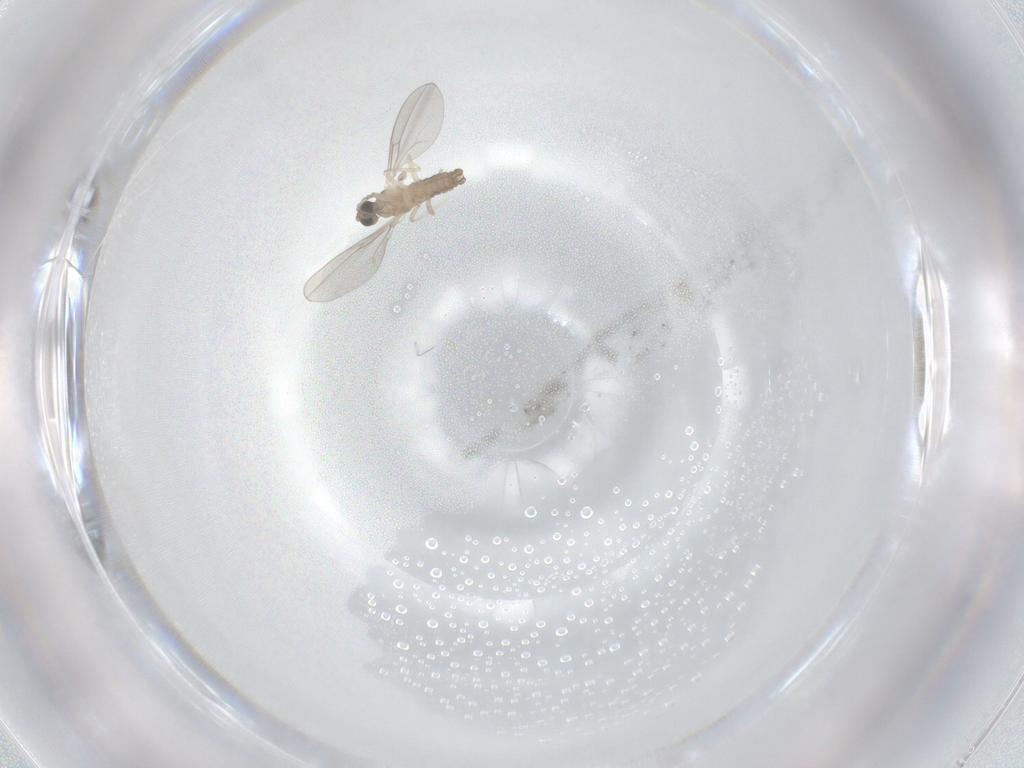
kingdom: Animalia
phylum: Arthropoda
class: Insecta
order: Diptera
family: Cecidomyiidae
